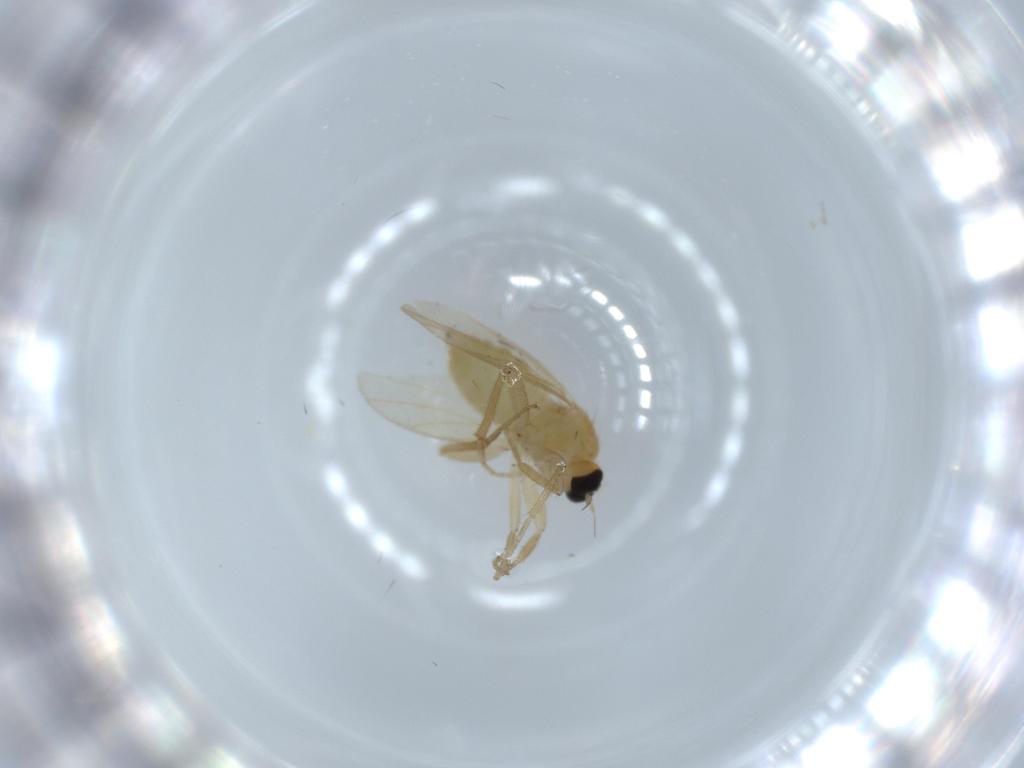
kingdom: Animalia
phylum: Arthropoda
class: Insecta
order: Diptera
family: Hybotidae
